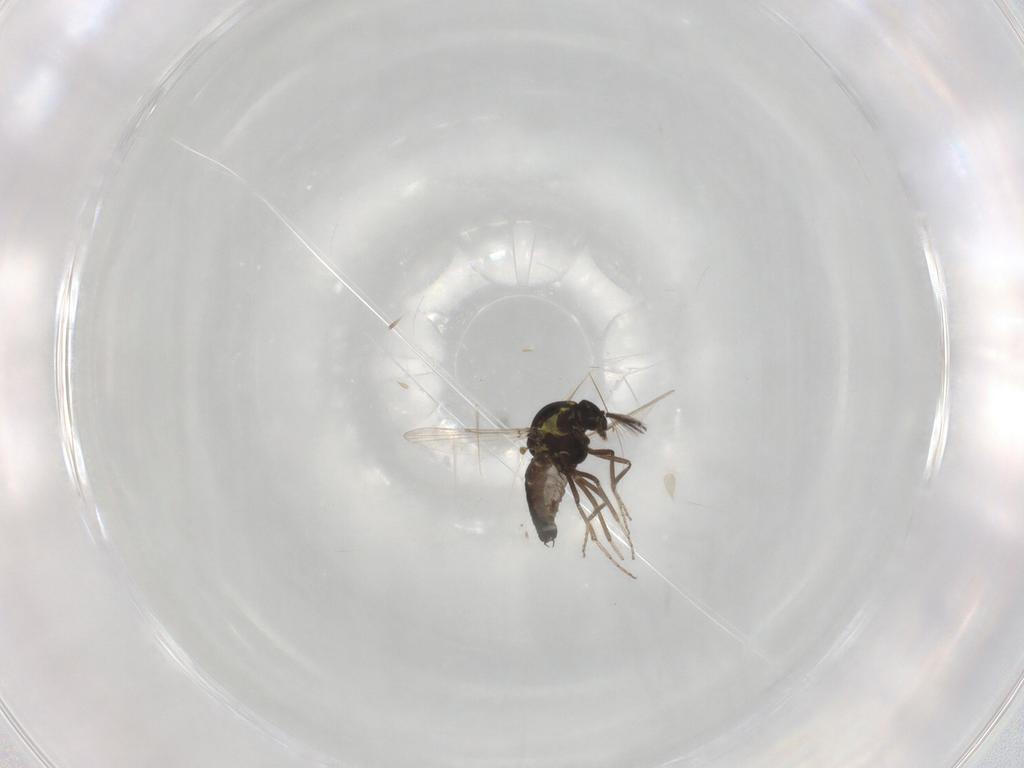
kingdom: Animalia
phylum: Arthropoda
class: Insecta
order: Diptera
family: Ceratopogonidae
